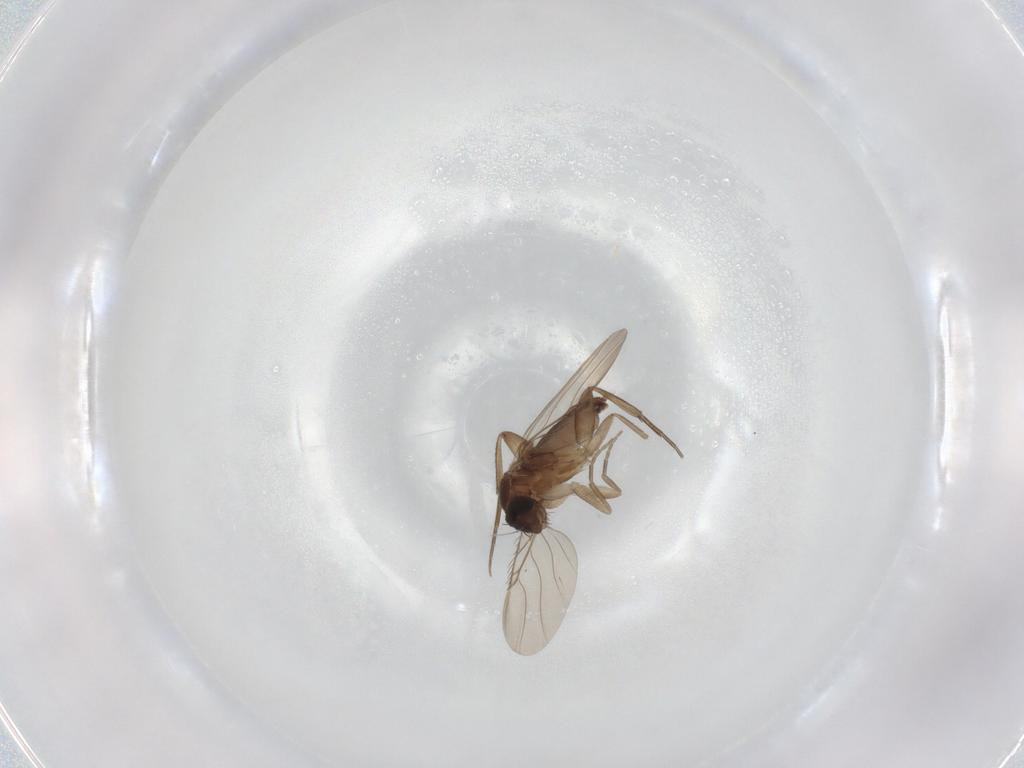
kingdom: Animalia
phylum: Arthropoda
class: Insecta
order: Diptera
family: Phoridae
